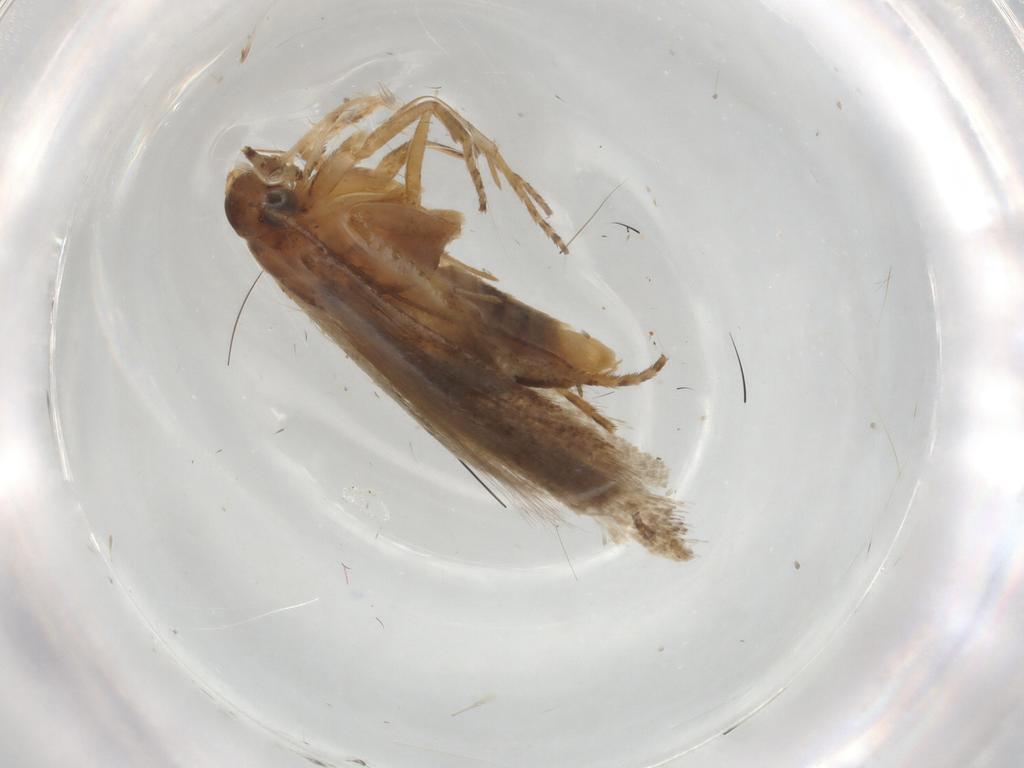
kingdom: Animalia
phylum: Arthropoda
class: Insecta
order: Lepidoptera
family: Gelechiidae
